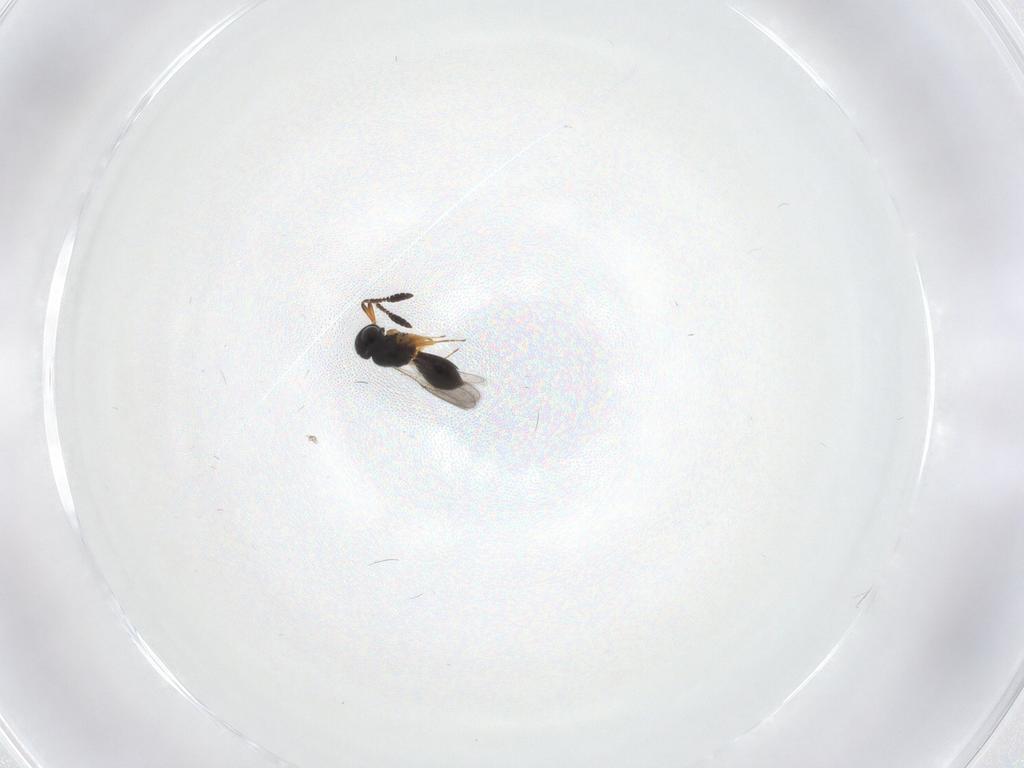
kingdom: Animalia
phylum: Arthropoda
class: Insecta
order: Hymenoptera
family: Scelionidae
